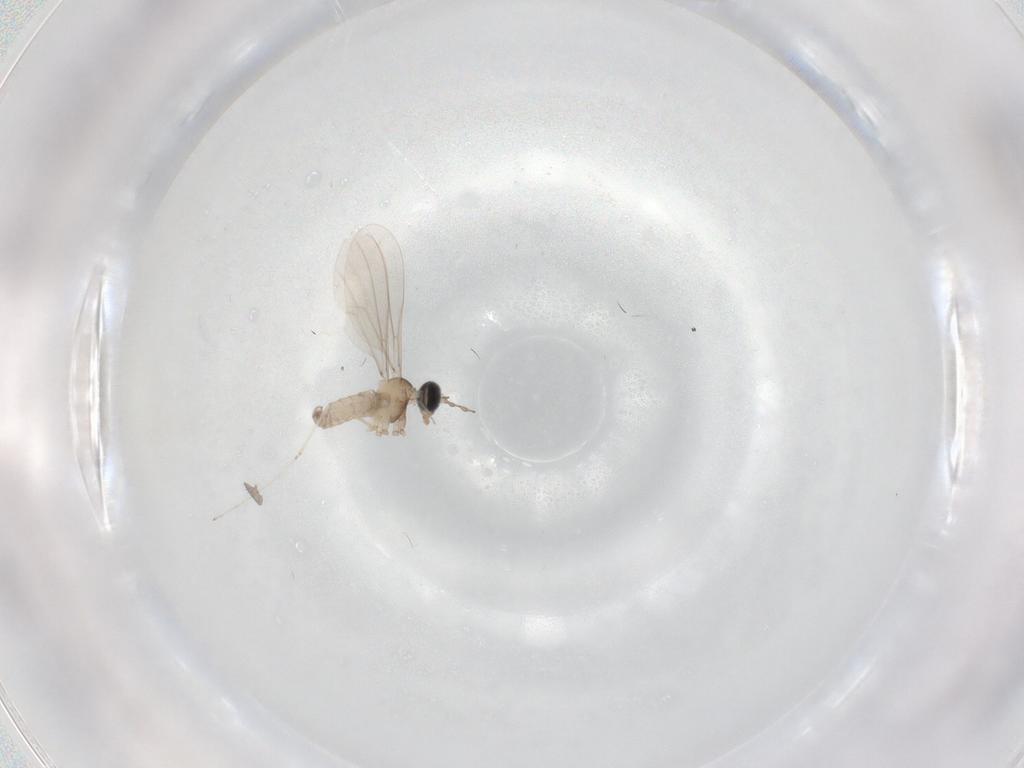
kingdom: Animalia
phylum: Arthropoda
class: Insecta
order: Diptera
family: Cecidomyiidae
